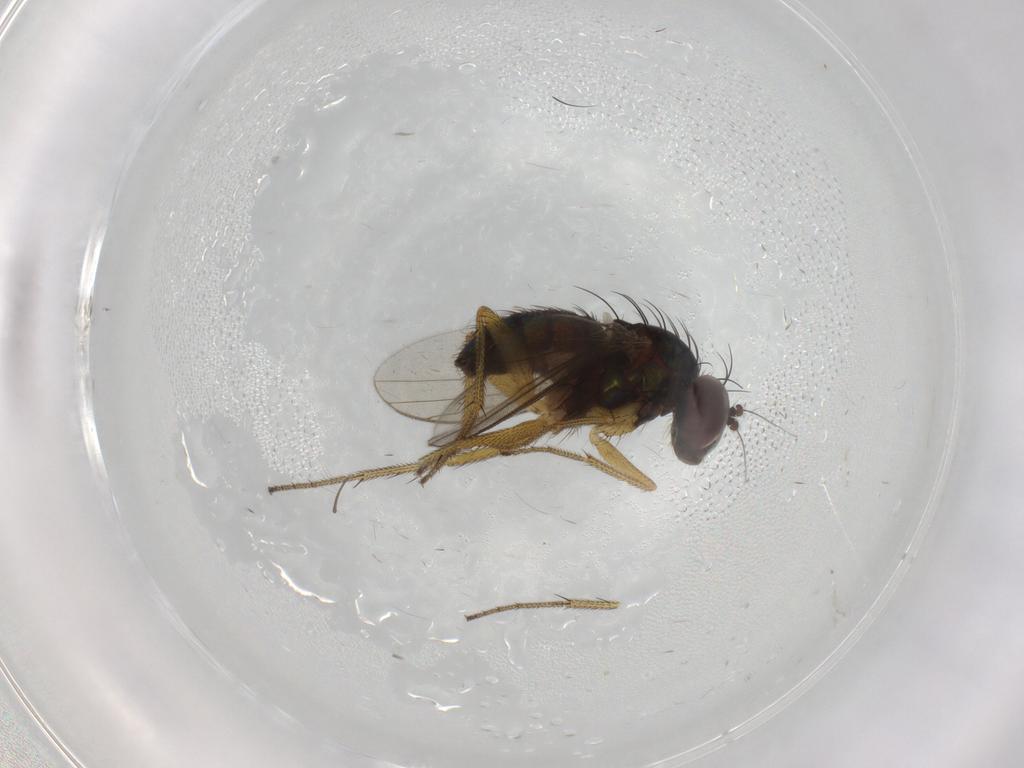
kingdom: Animalia
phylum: Arthropoda
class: Insecta
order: Diptera
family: Dolichopodidae
